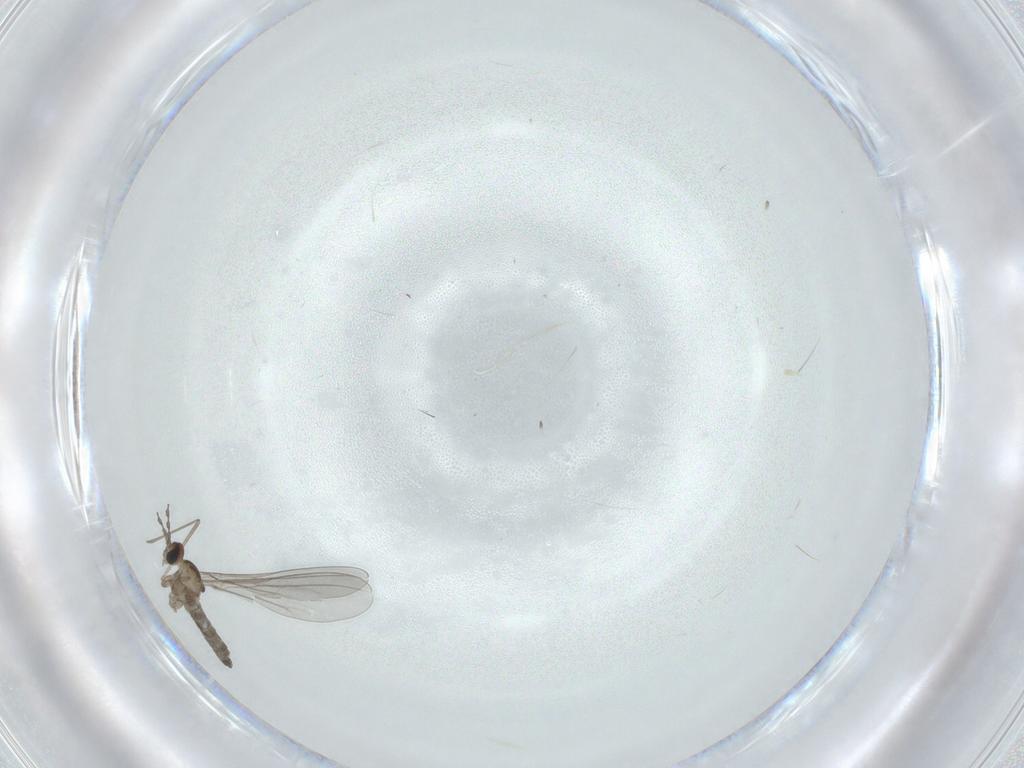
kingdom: Animalia
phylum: Arthropoda
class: Insecta
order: Diptera
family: Cecidomyiidae
